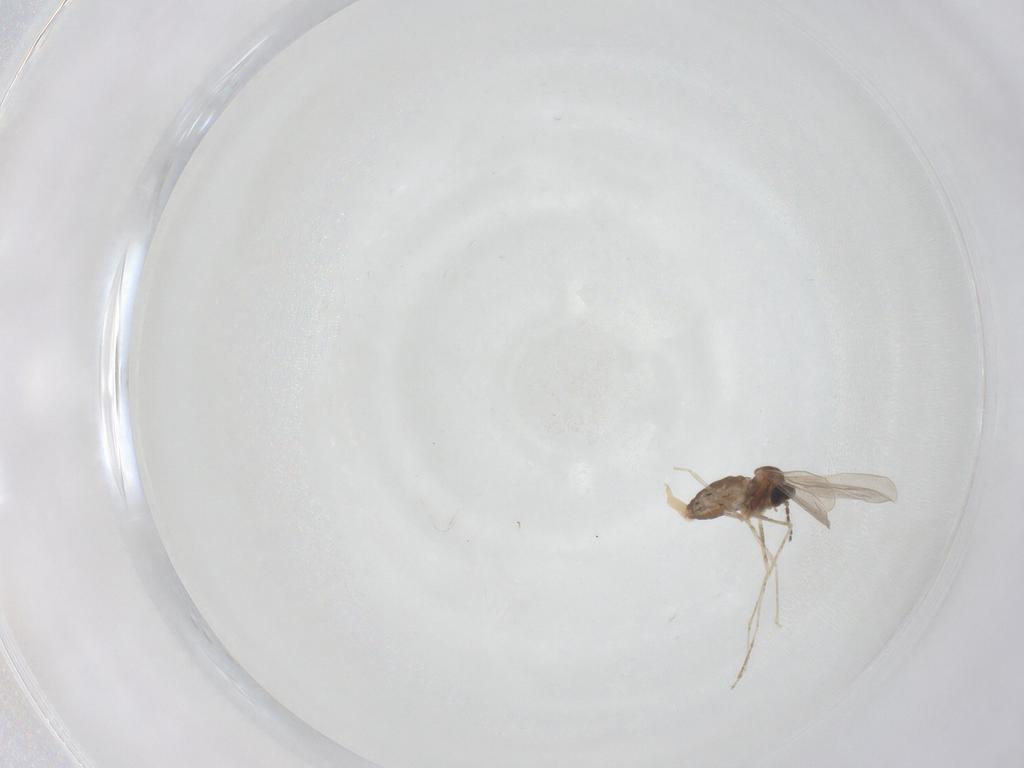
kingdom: Animalia
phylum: Arthropoda
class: Insecta
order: Diptera
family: Cecidomyiidae
